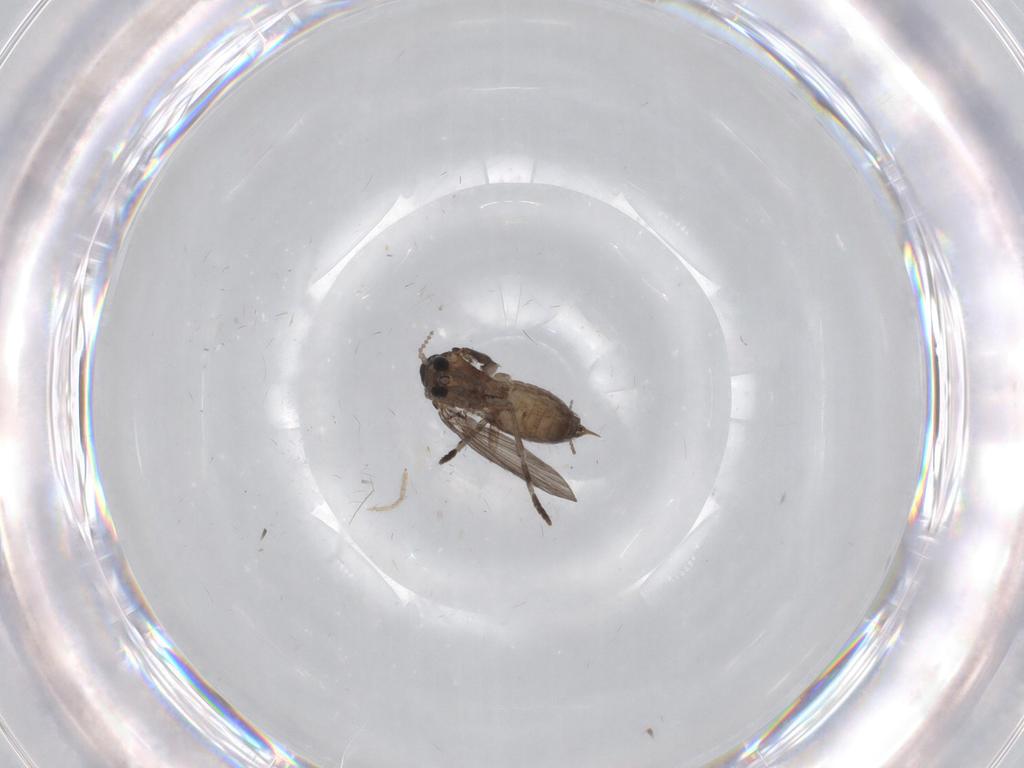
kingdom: Animalia
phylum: Arthropoda
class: Insecta
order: Diptera
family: Psychodidae
